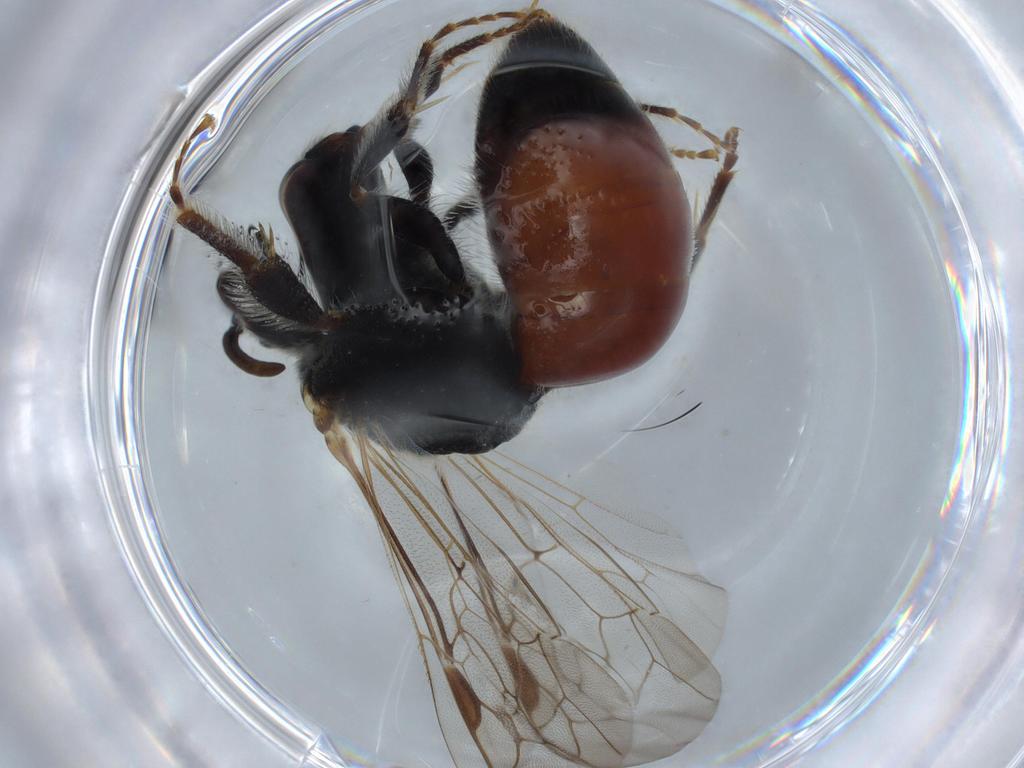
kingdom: Animalia
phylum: Arthropoda
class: Insecta
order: Hymenoptera
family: Halictidae
